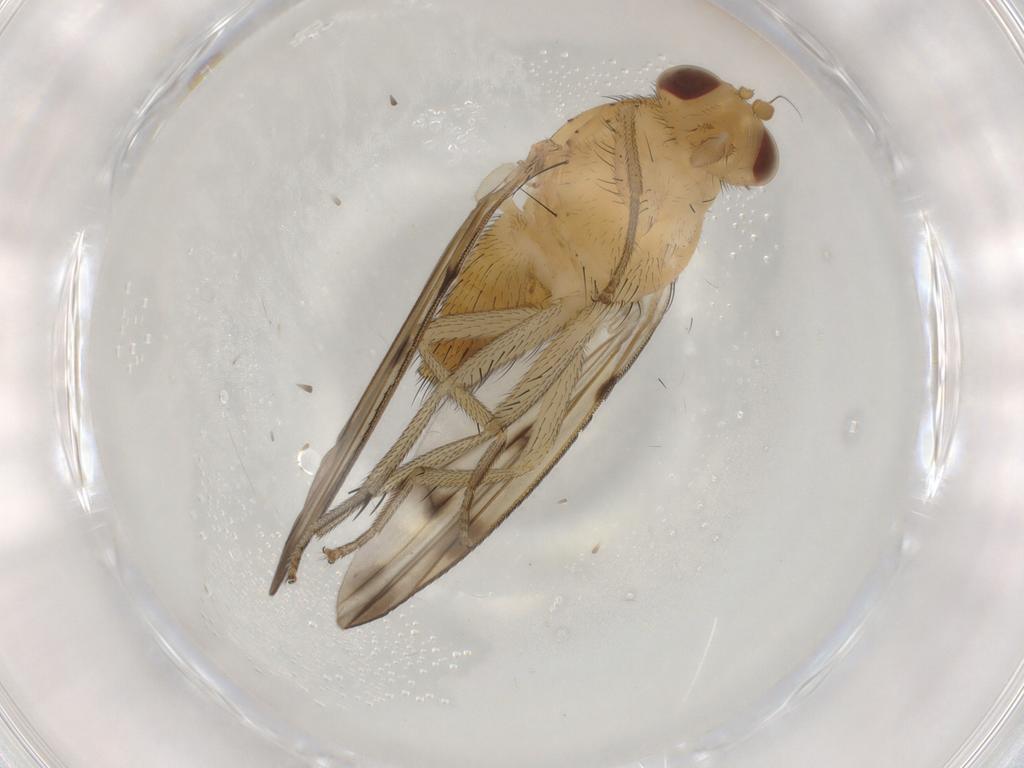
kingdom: Animalia
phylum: Arthropoda
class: Insecta
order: Diptera
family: Lauxaniidae
